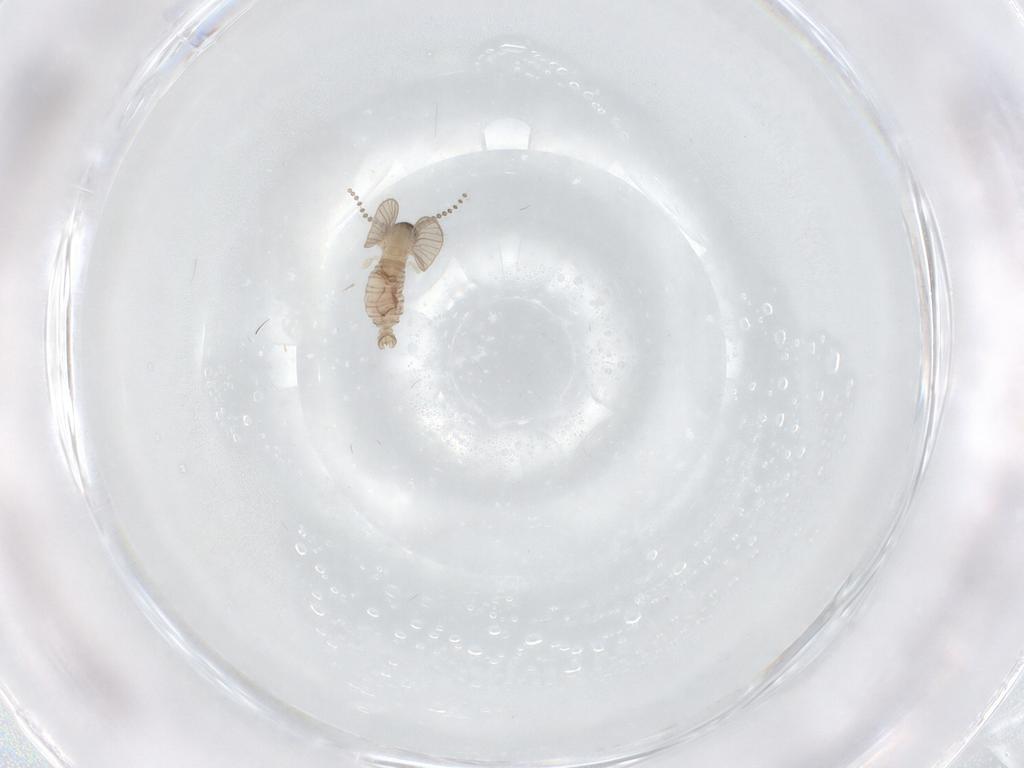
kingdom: Animalia
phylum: Arthropoda
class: Insecta
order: Diptera
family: Psychodidae
